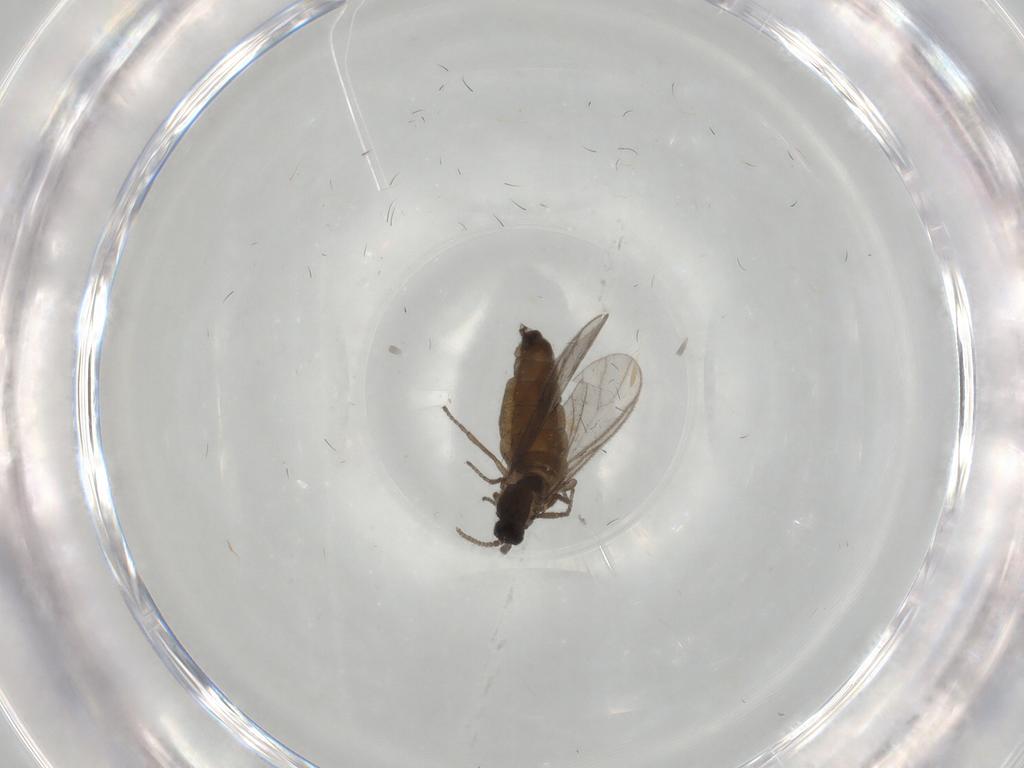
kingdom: Animalia
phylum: Arthropoda
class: Insecta
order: Diptera
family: Sciaridae
